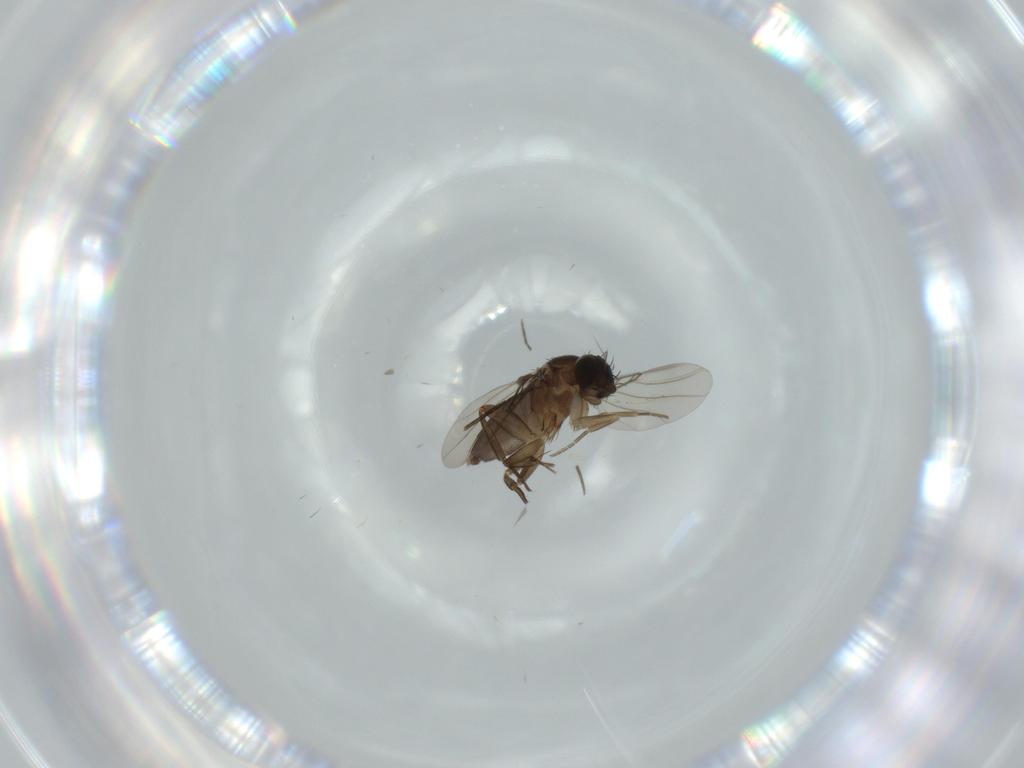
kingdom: Animalia
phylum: Arthropoda
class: Insecta
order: Diptera
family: Phoridae
